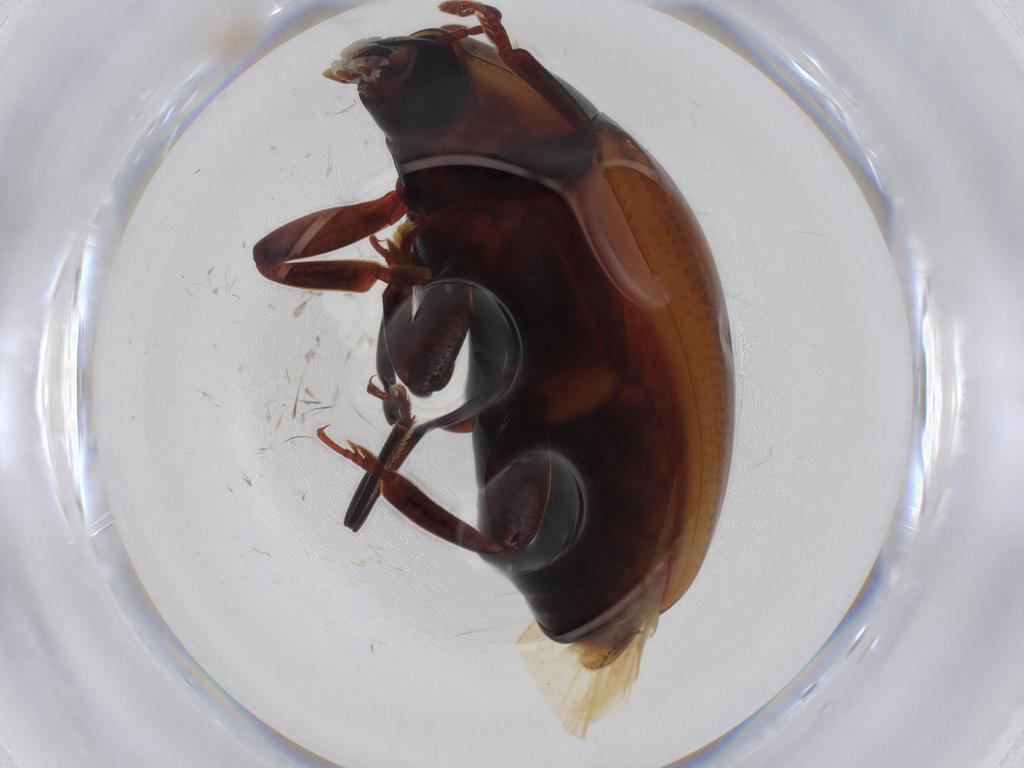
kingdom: Animalia
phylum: Arthropoda
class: Insecta
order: Coleoptera
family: Zopheridae
